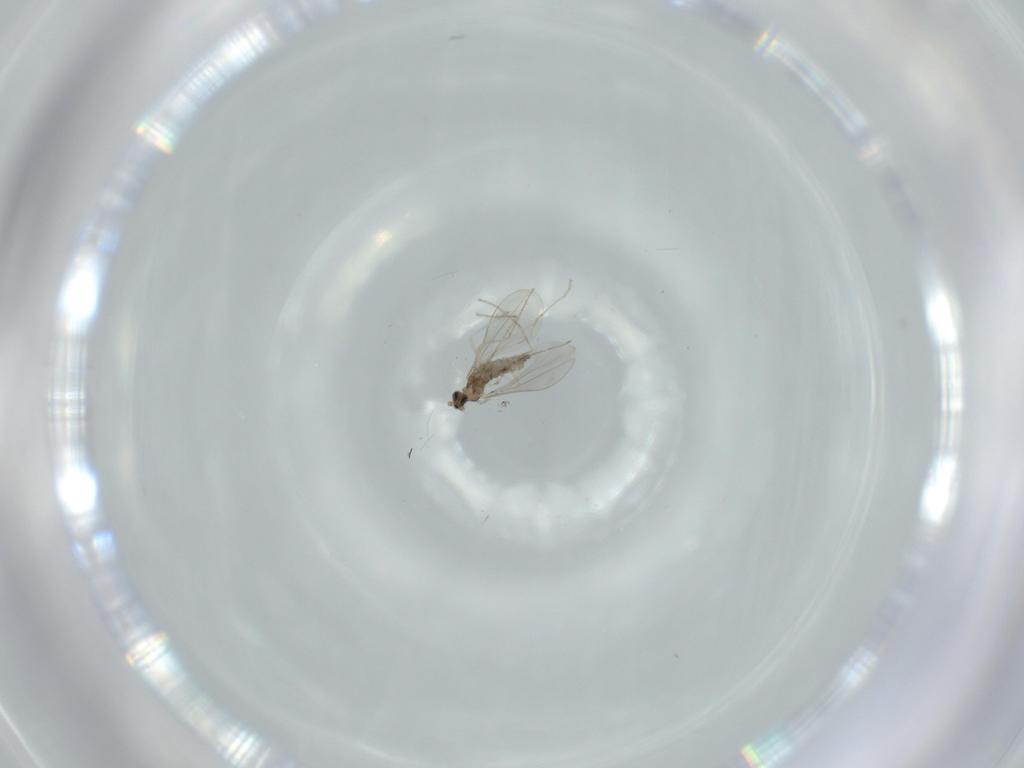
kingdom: Animalia
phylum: Arthropoda
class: Insecta
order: Diptera
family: Cecidomyiidae
